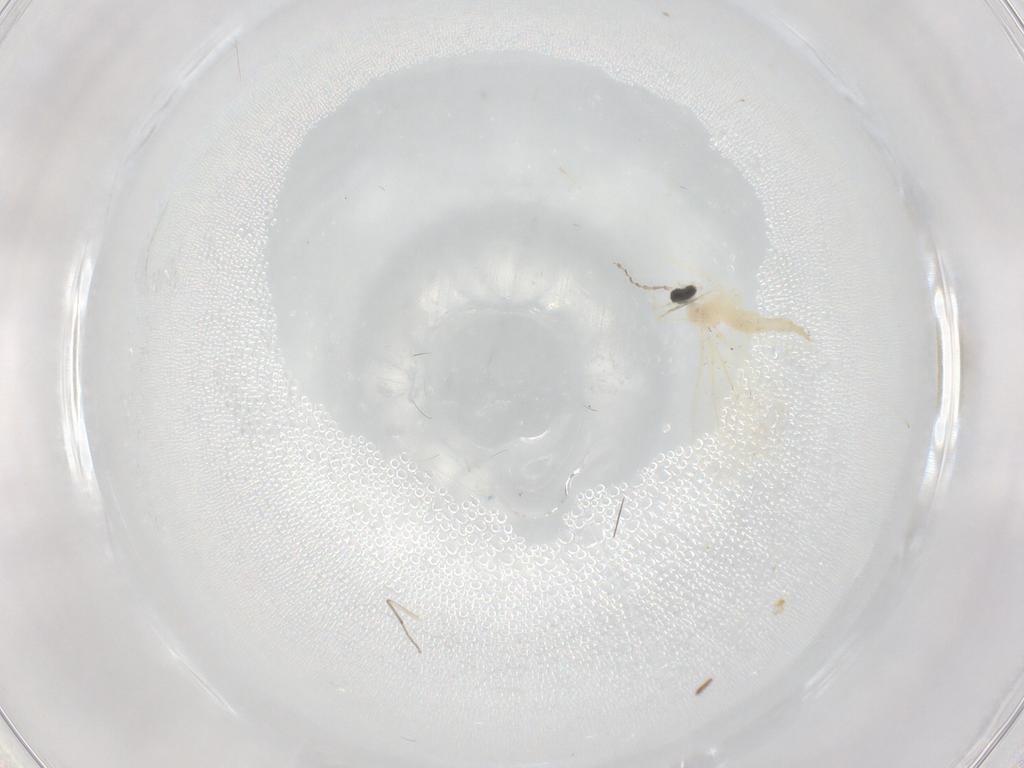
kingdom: Animalia
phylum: Arthropoda
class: Insecta
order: Diptera
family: Chironomidae
